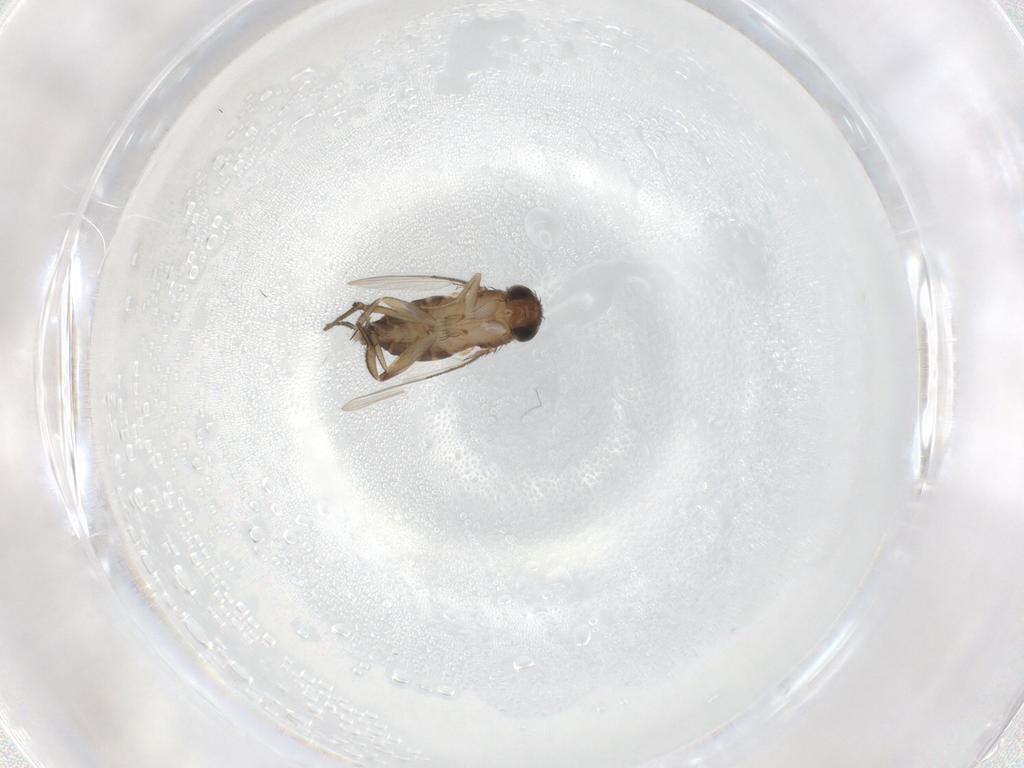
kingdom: Animalia
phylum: Arthropoda
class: Insecta
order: Diptera
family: Phoridae
